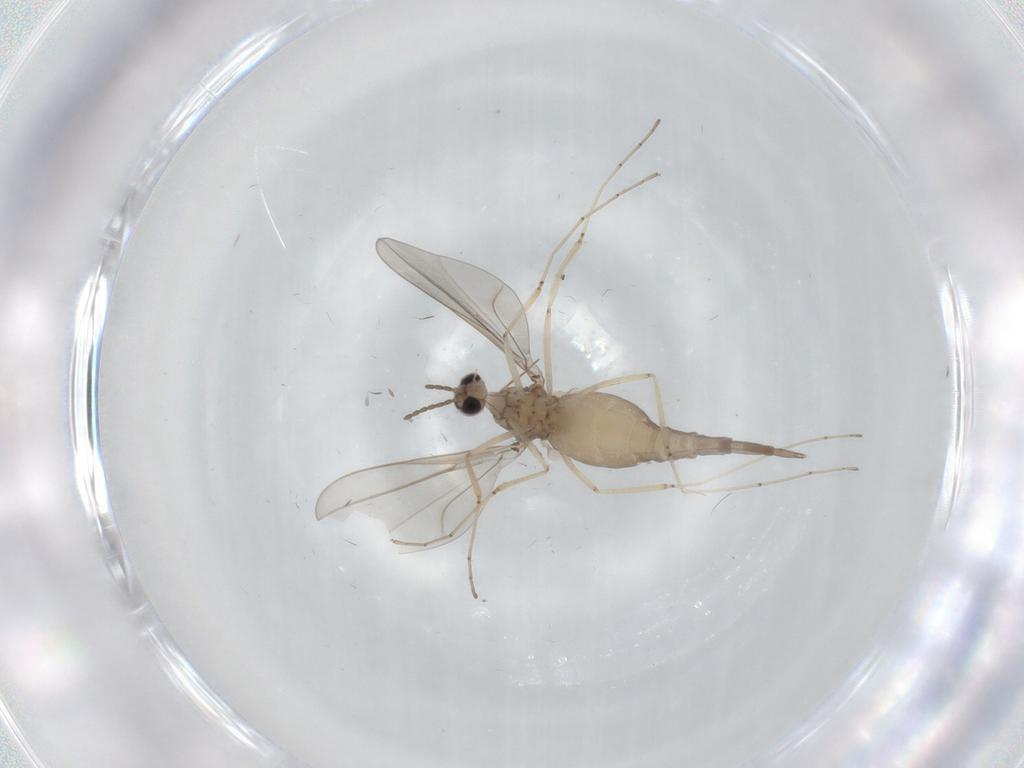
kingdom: Animalia
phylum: Arthropoda
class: Insecta
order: Diptera
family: Cecidomyiidae
